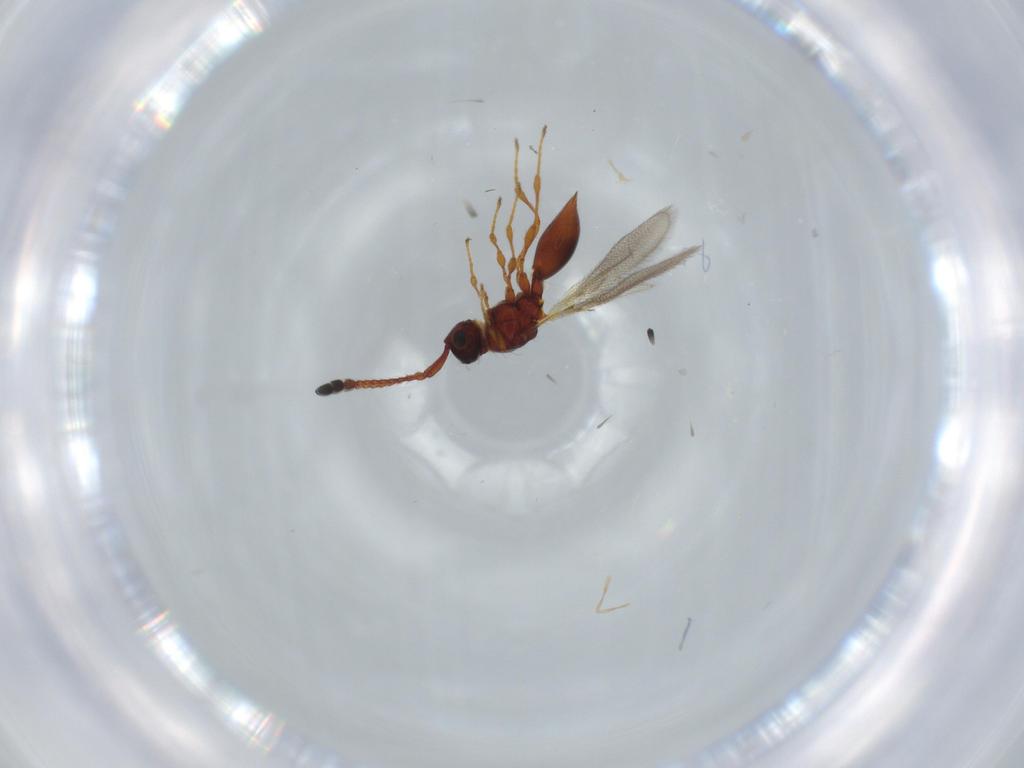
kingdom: Animalia
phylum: Arthropoda
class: Insecta
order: Hymenoptera
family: Diapriidae
